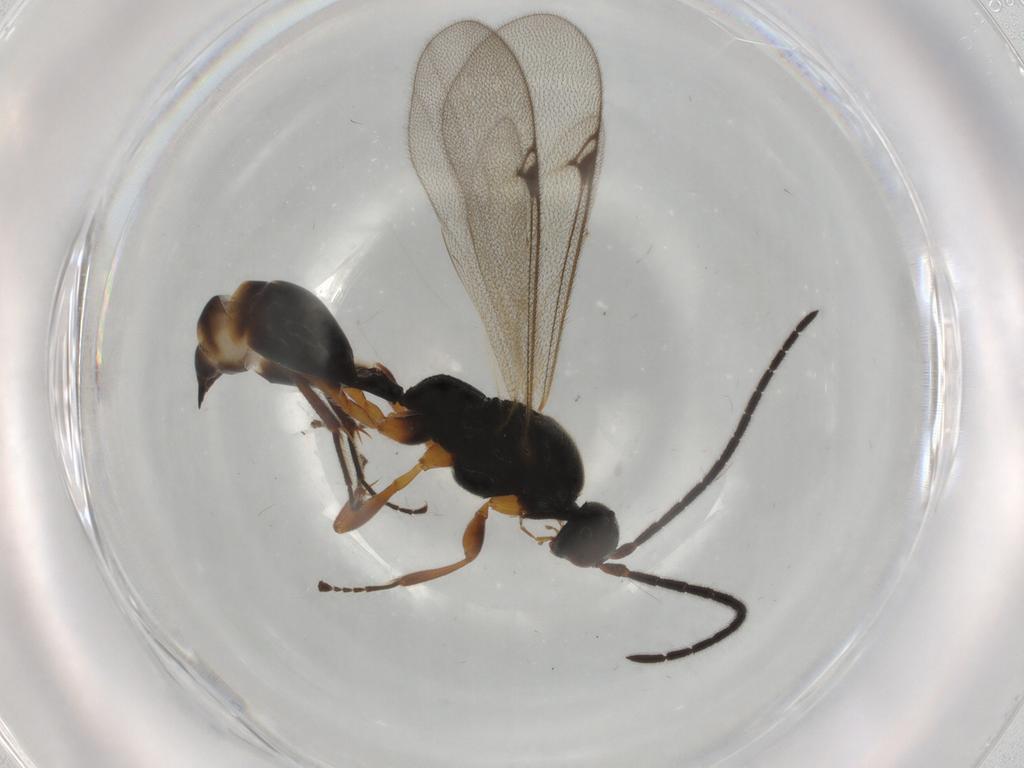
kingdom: Animalia
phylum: Arthropoda
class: Insecta
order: Hymenoptera
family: Proctotrupidae
